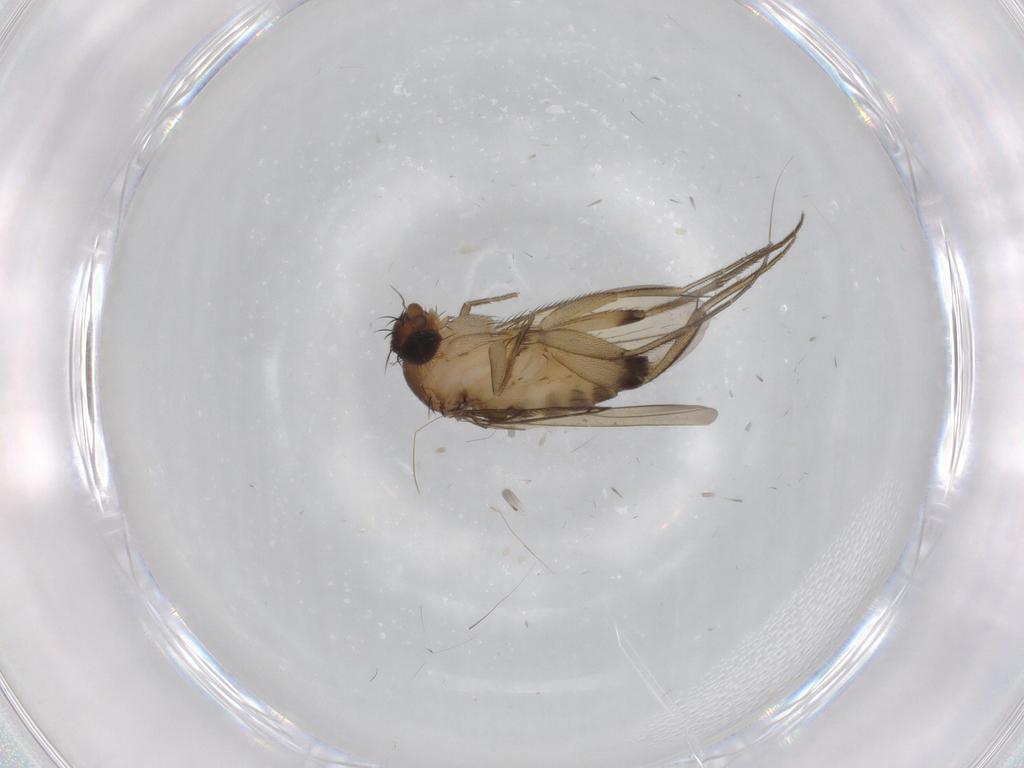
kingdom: Animalia
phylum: Arthropoda
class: Insecta
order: Diptera
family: Phoridae
